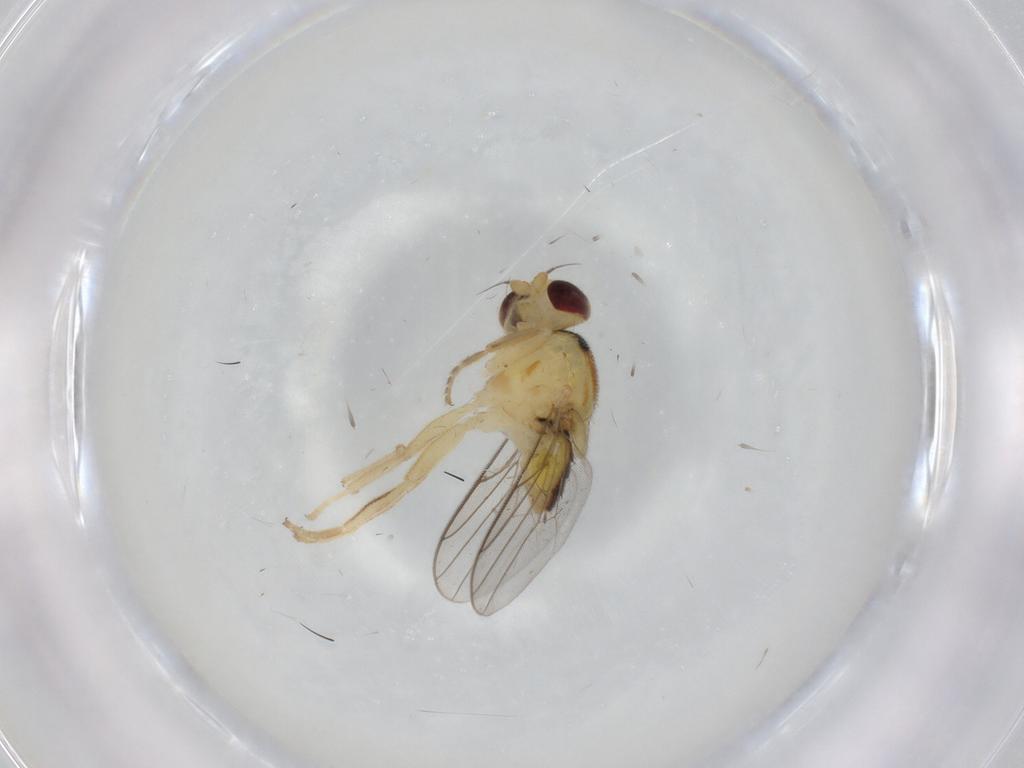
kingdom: Animalia
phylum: Arthropoda
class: Insecta
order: Diptera
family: Chloropidae
